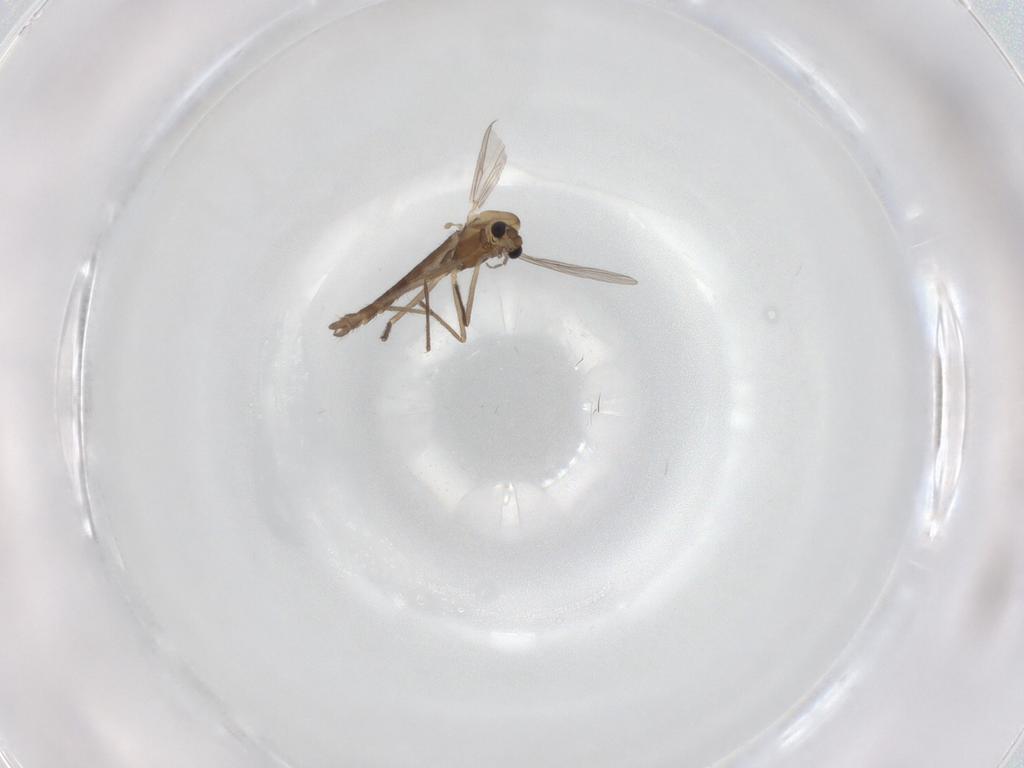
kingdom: Animalia
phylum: Arthropoda
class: Insecta
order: Diptera
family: Chironomidae
